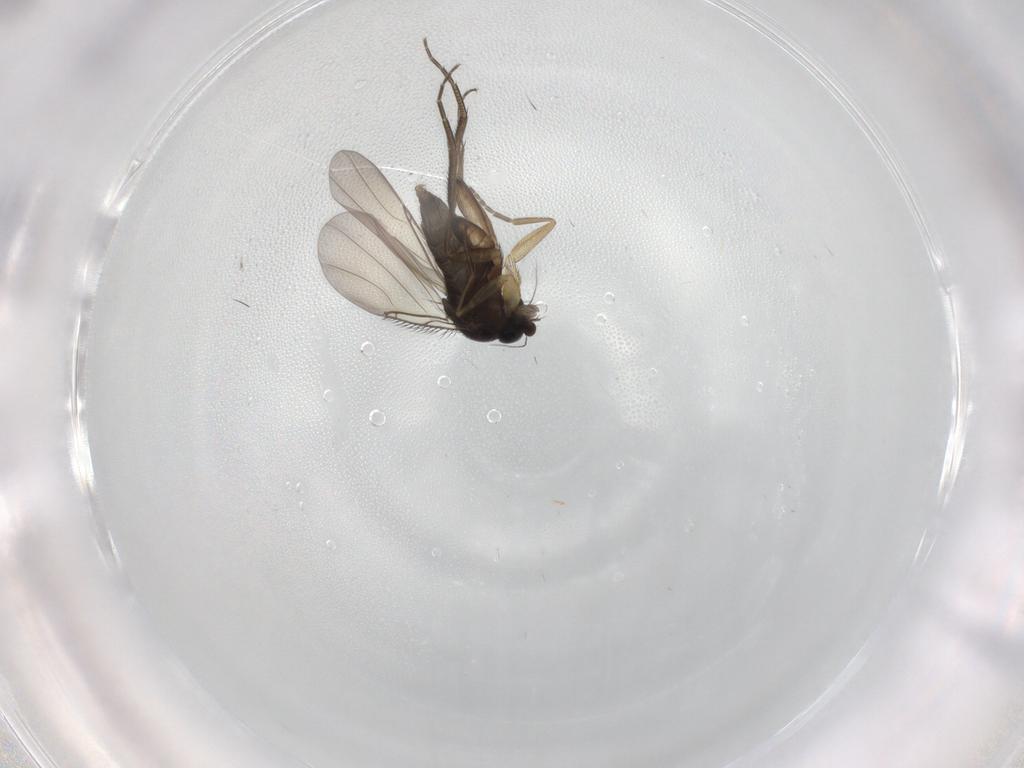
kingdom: Animalia
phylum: Arthropoda
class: Insecta
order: Diptera
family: Phoridae
